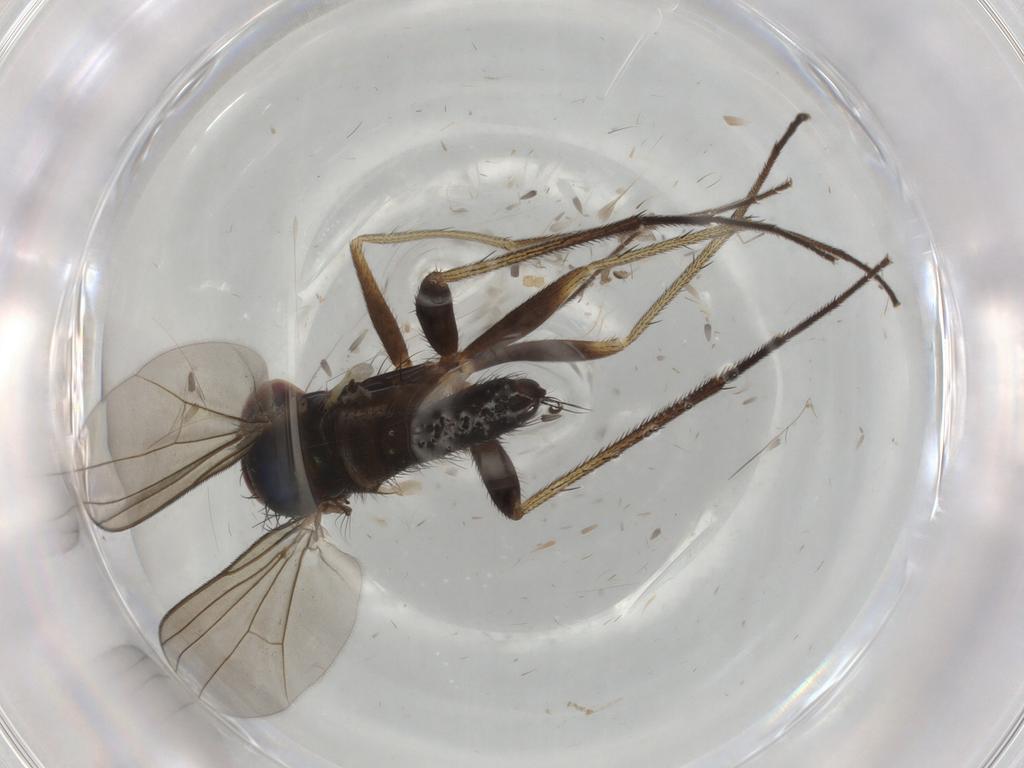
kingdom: Animalia
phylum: Arthropoda
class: Insecta
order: Diptera
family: Dolichopodidae
